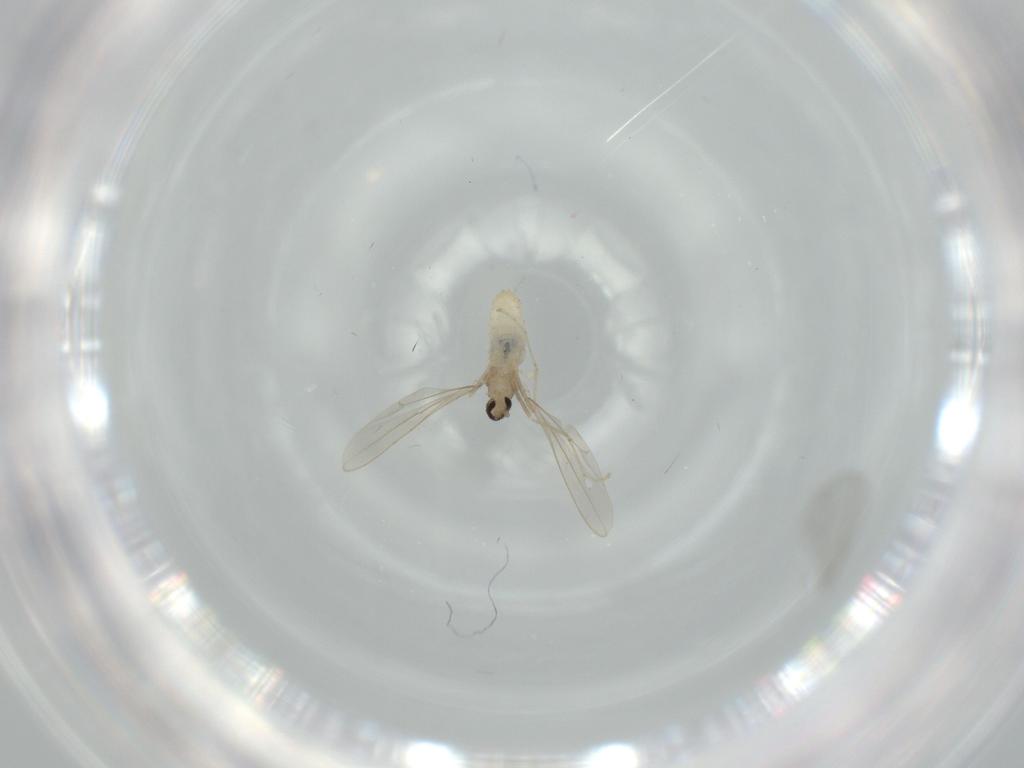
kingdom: Animalia
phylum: Arthropoda
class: Insecta
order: Diptera
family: Cecidomyiidae
